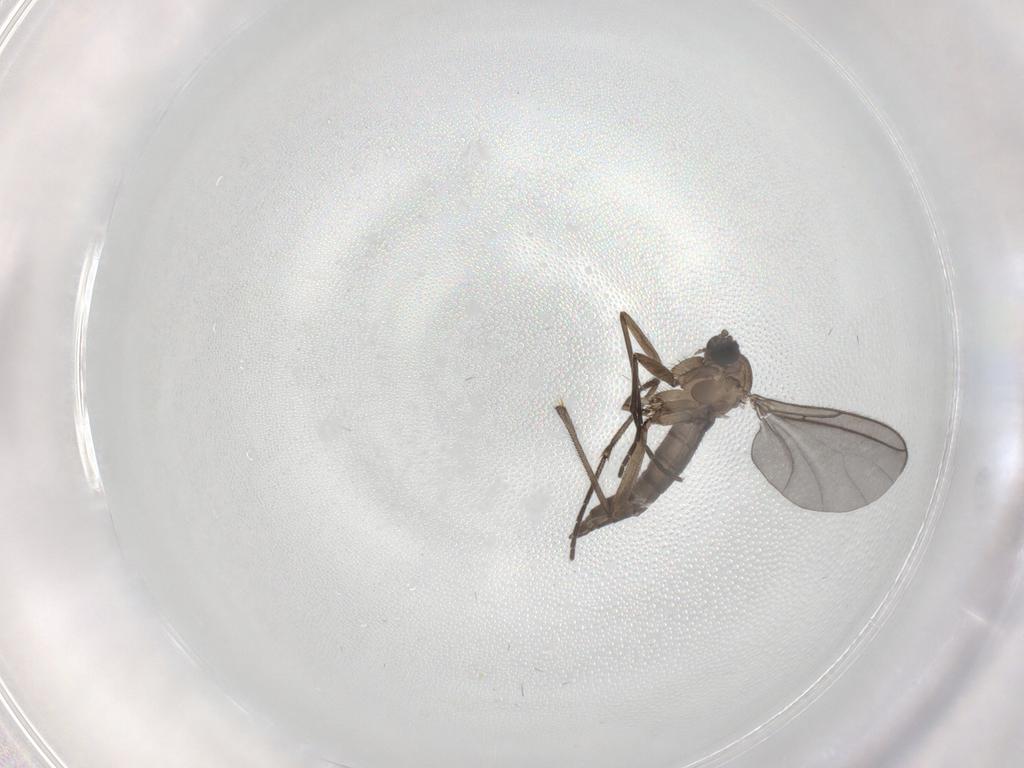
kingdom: Animalia
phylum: Arthropoda
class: Insecta
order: Diptera
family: Sciaridae
